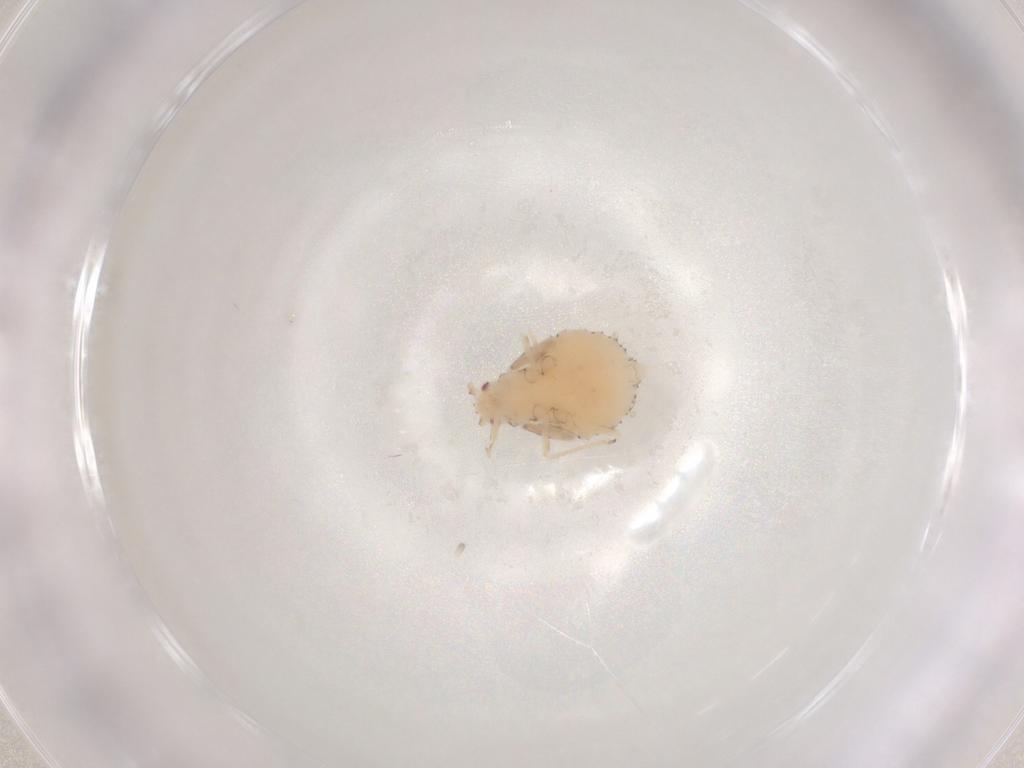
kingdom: Animalia
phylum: Arthropoda
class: Insecta
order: Hemiptera
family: Aphididae
